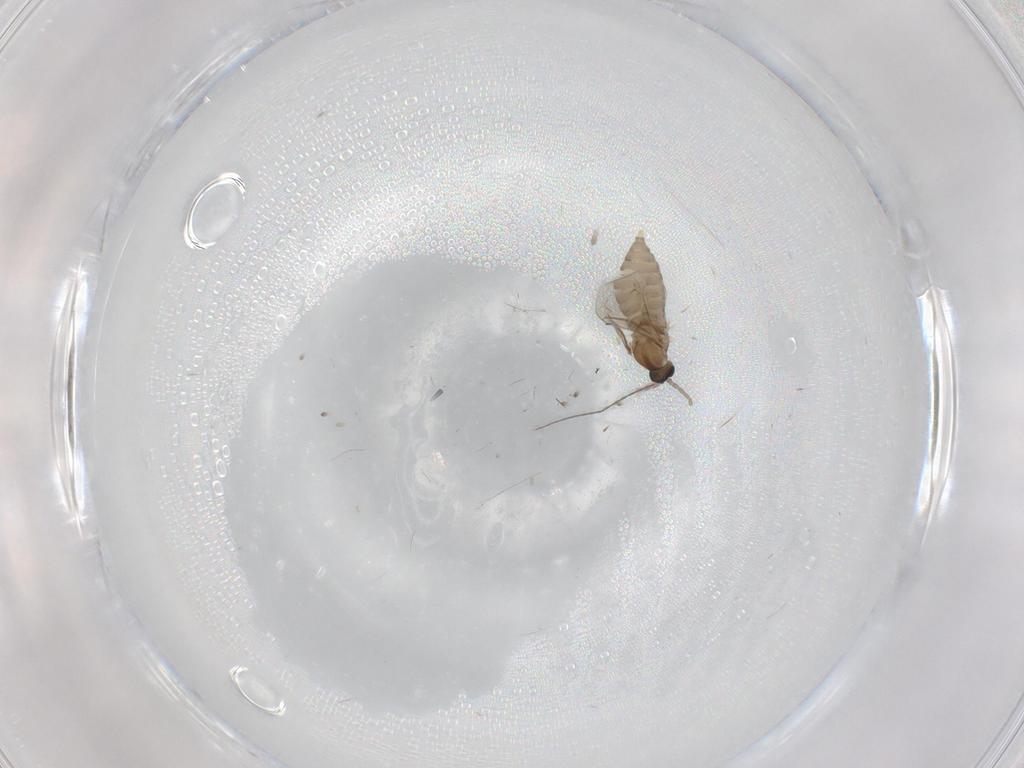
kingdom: Animalia
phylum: Arthropoda
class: Insecta
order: Diptera
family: Cecidomyiidae
